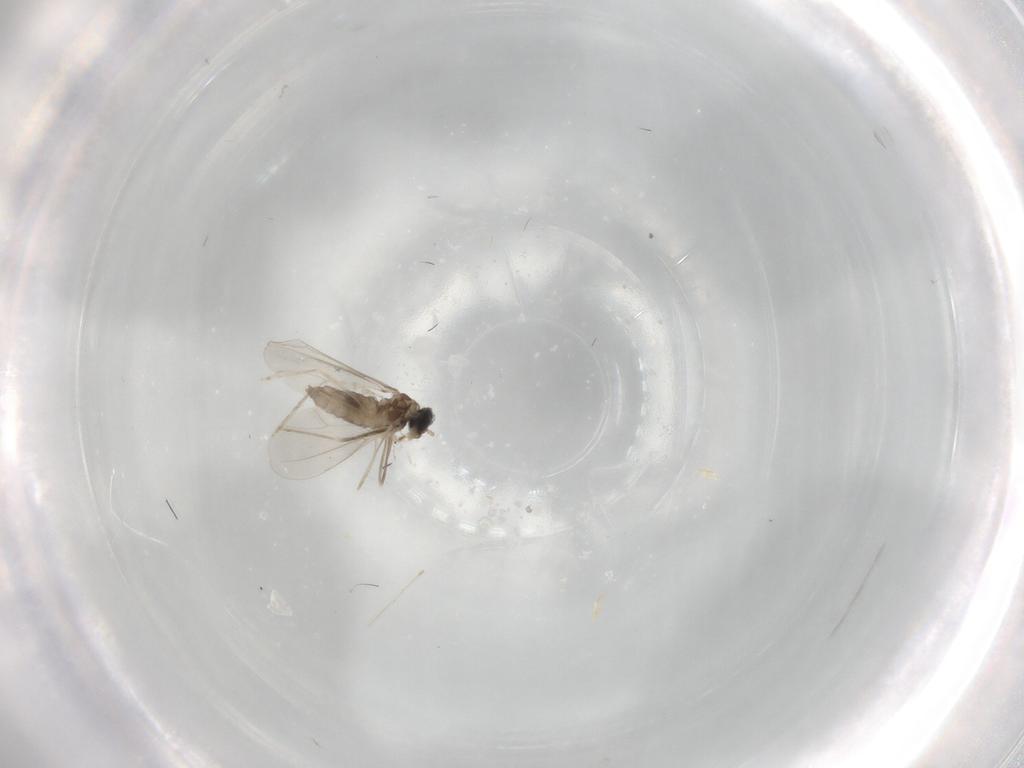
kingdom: Animalia
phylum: Arthropoda
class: Insecta
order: Diptera
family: Cecidomyiidae
